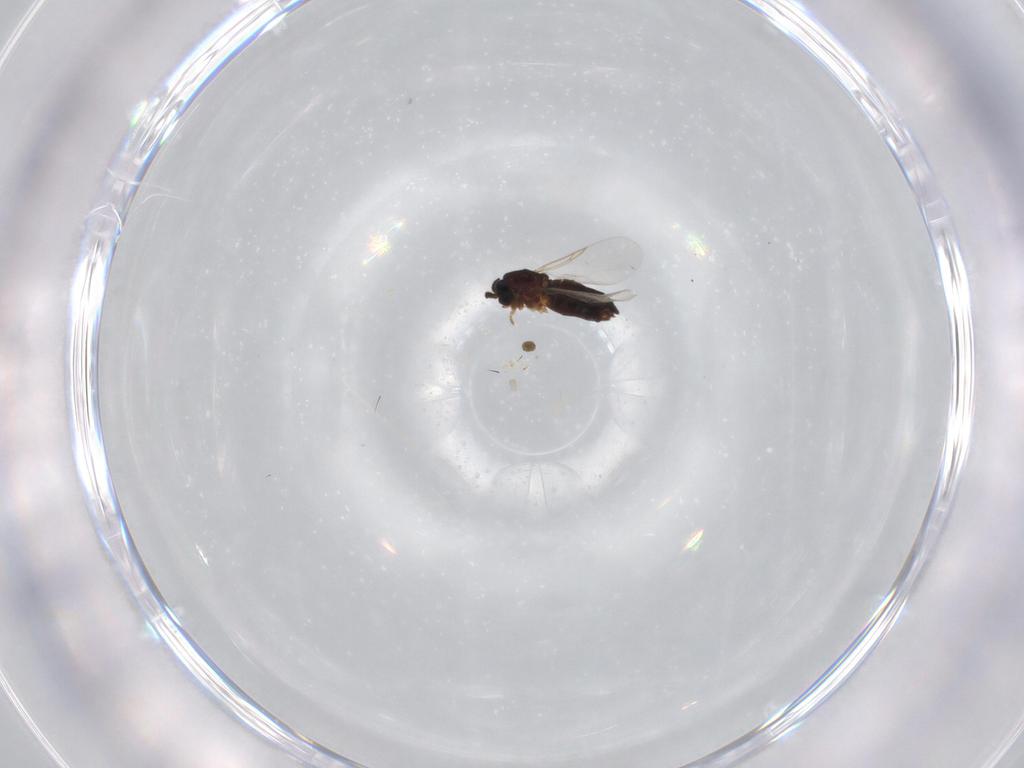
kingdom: Animalia
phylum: Arthropoda
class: Insecta
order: Diptera
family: Scatopsidae
